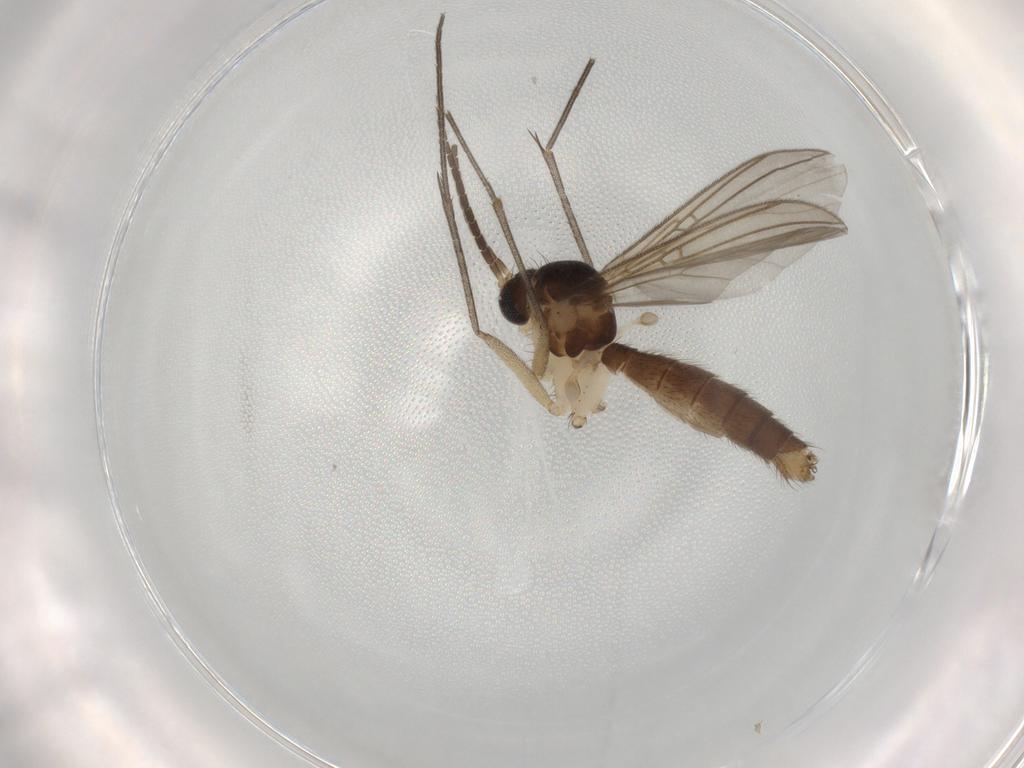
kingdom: Animalia
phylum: Arthropoda
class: Insecta
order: Diptera
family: Mycetophilidae
